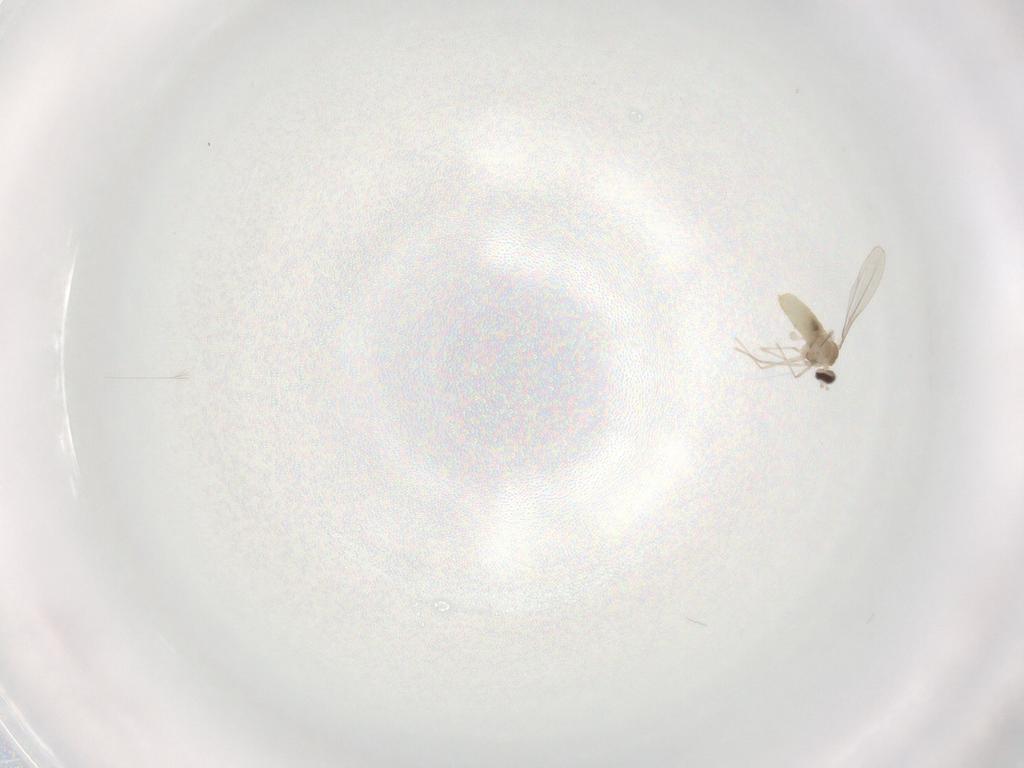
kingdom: Animalia
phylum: Arthropoda
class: Insecta
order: Diptera
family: Cecidomyiidae
